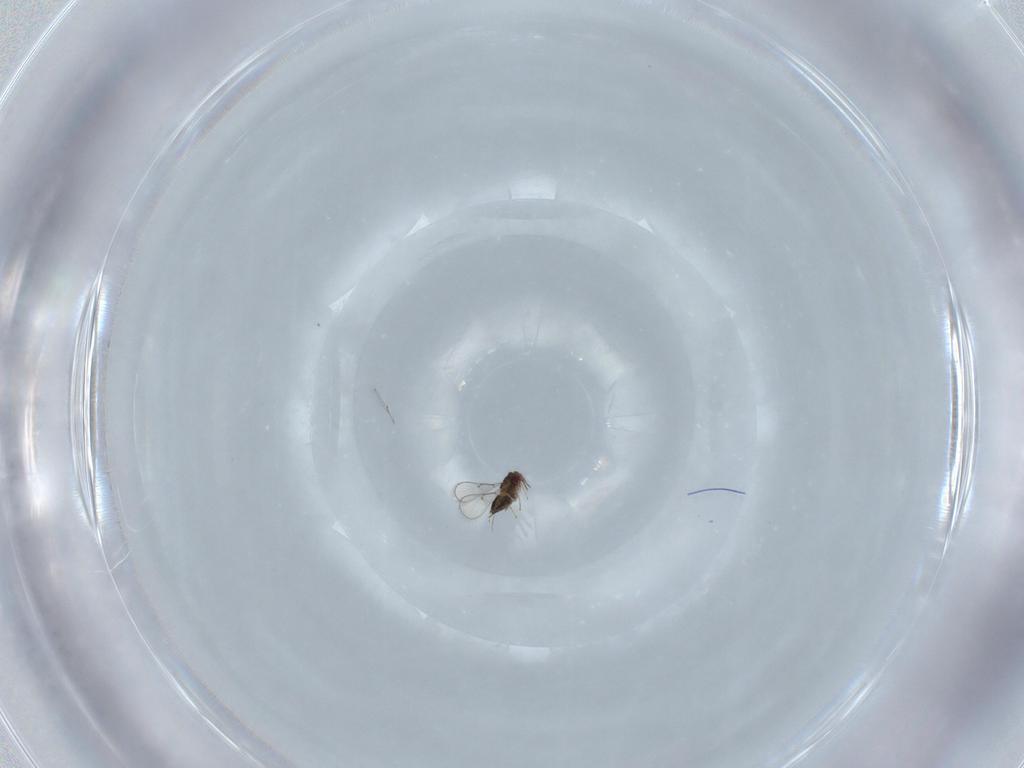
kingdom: Animalia
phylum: Arthropoda
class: Insecta
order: Hymenoptera
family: Trichogrammatidae
